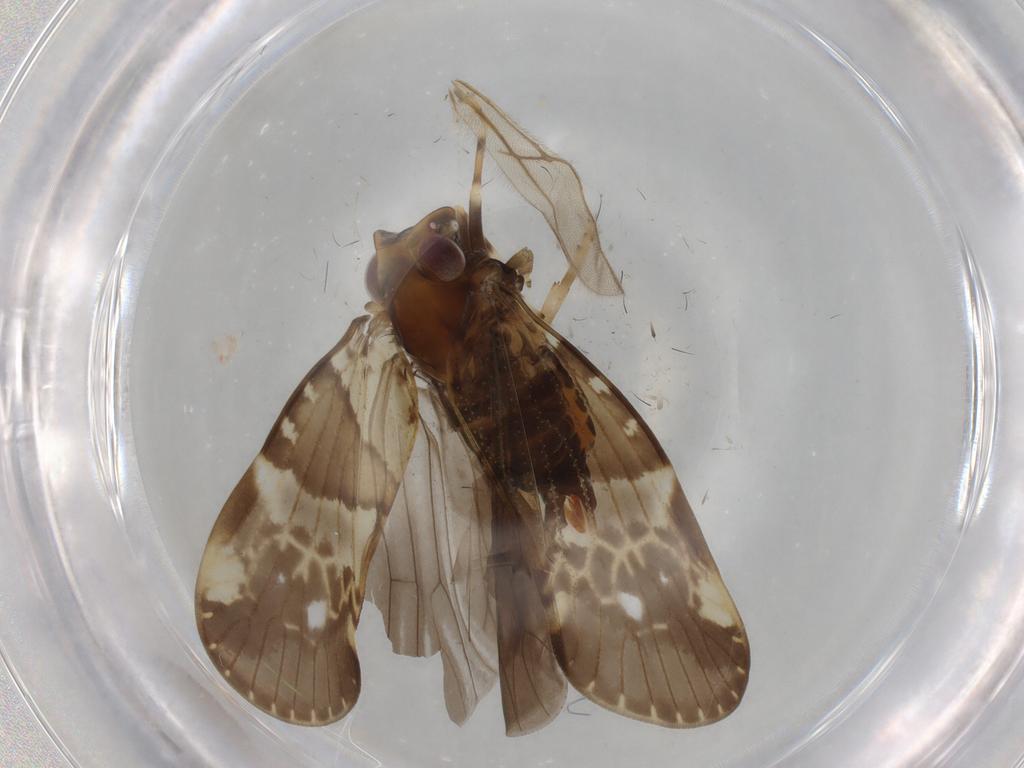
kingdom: Animalia
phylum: Arthropoda
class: Insecta
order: Hemiptera
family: Cixiidae
